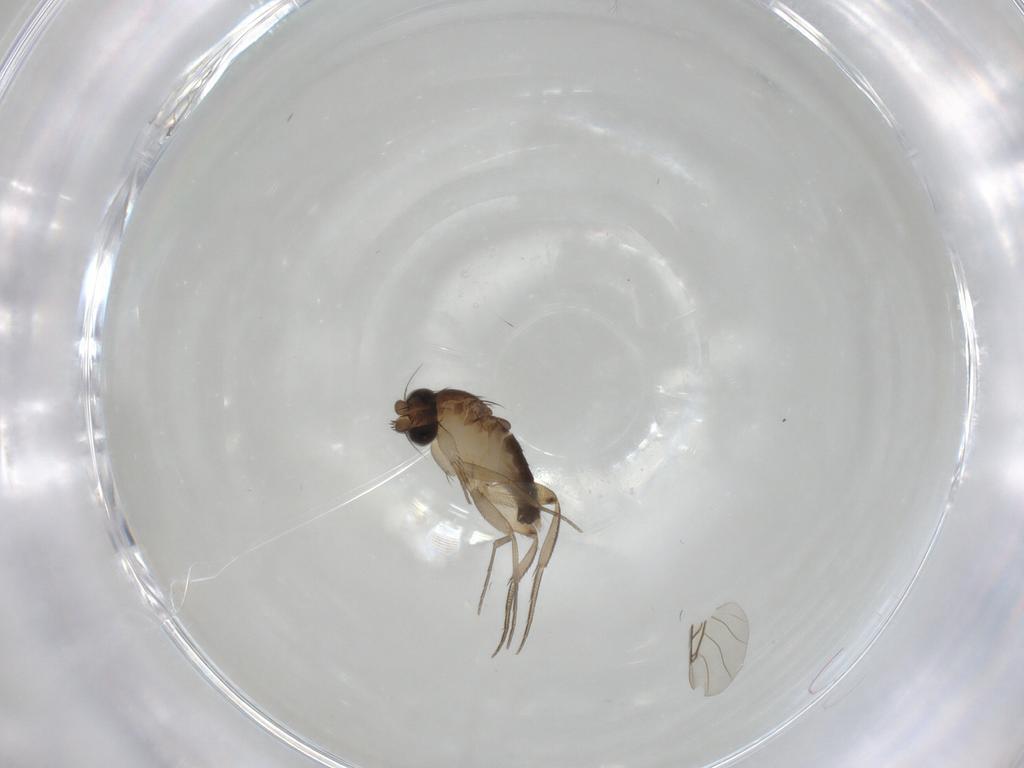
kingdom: Animalia
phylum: Arthropoda
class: Insecta
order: Diptera
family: Phoridae
